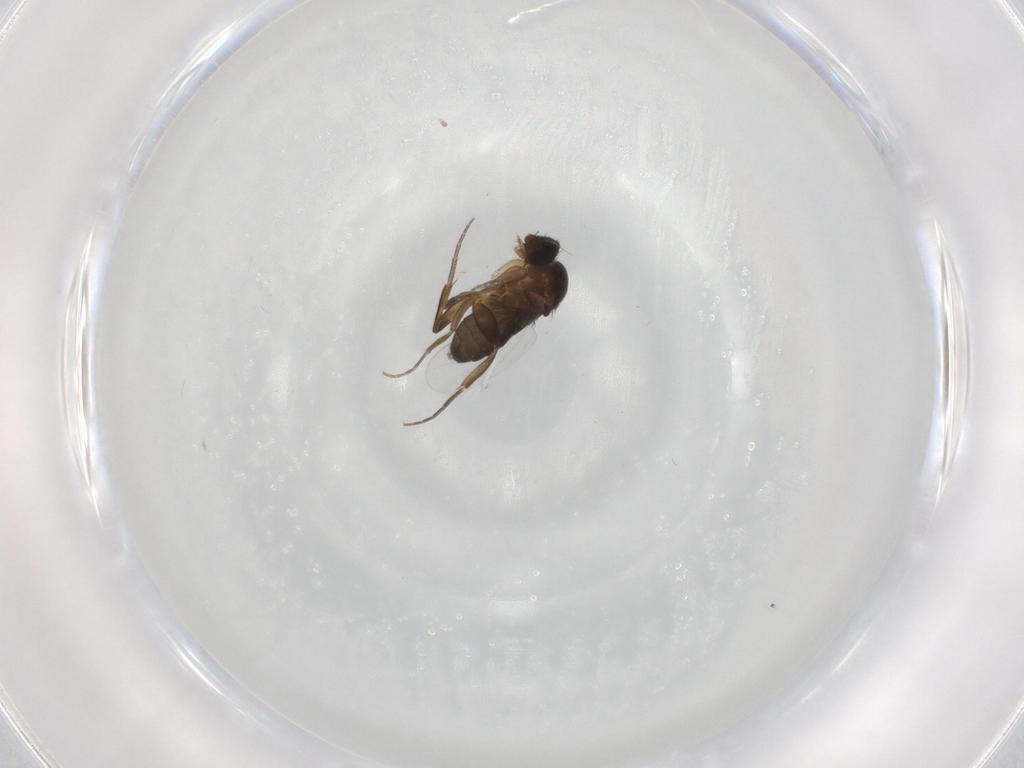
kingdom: Animalia
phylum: Arthropoda
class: Insecta
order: Diptera
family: Phoridae
